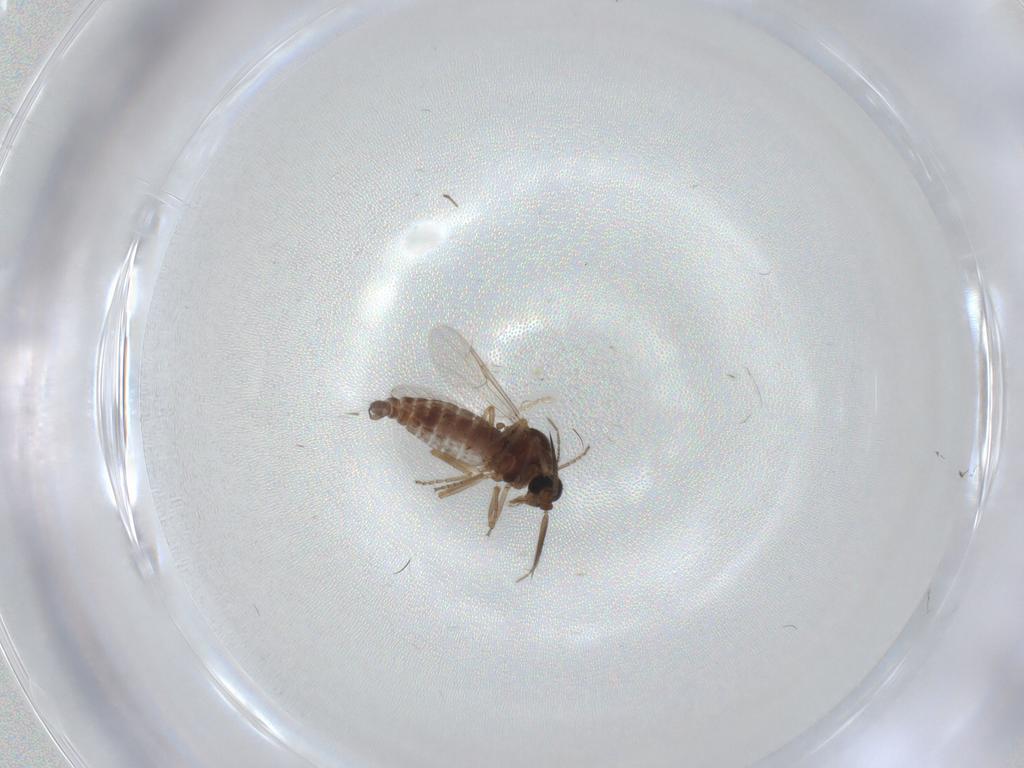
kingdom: Animalia
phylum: Arthropoda
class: Insecta
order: Diptera
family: Ceratopogonidae
